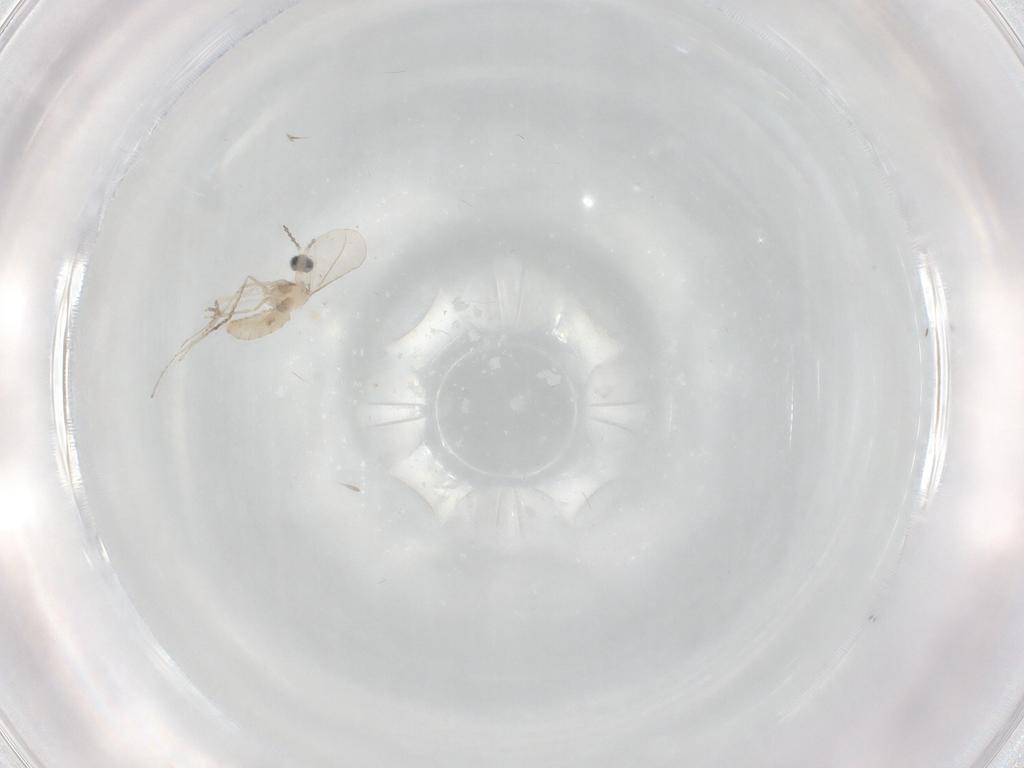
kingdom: Animalia
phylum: Arthropoda
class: Insecta
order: Diptera
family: Cecidomyiidae
